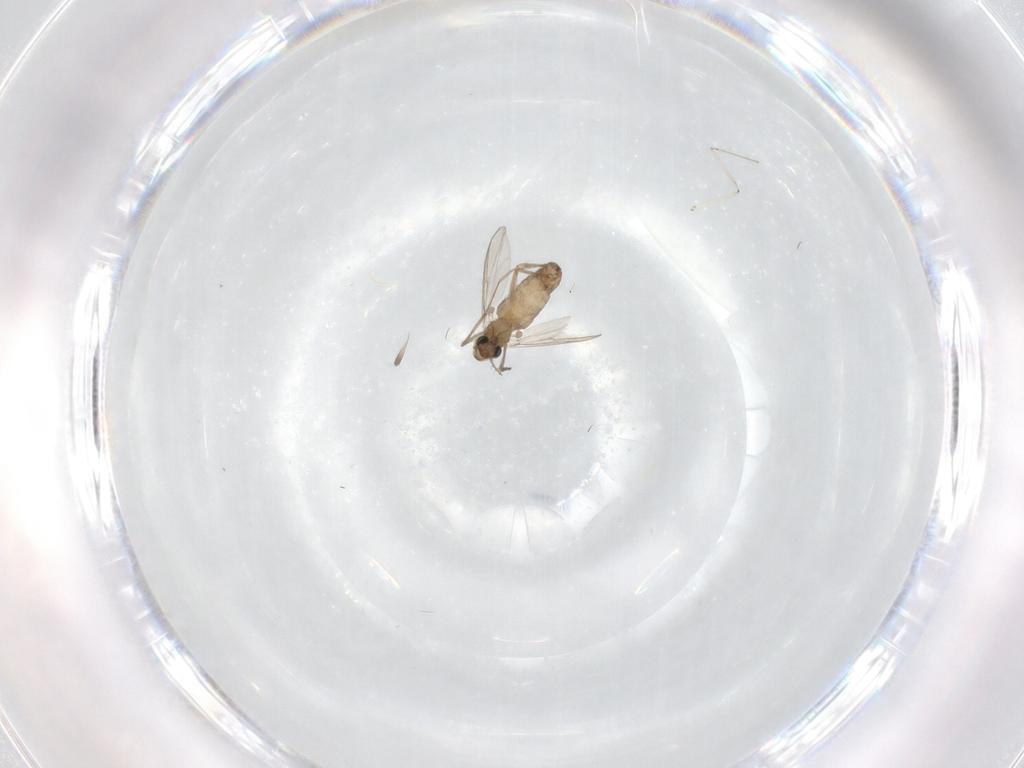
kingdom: Animalia
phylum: Arthropoda
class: Insecta
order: Diptera
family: Chironomidae
